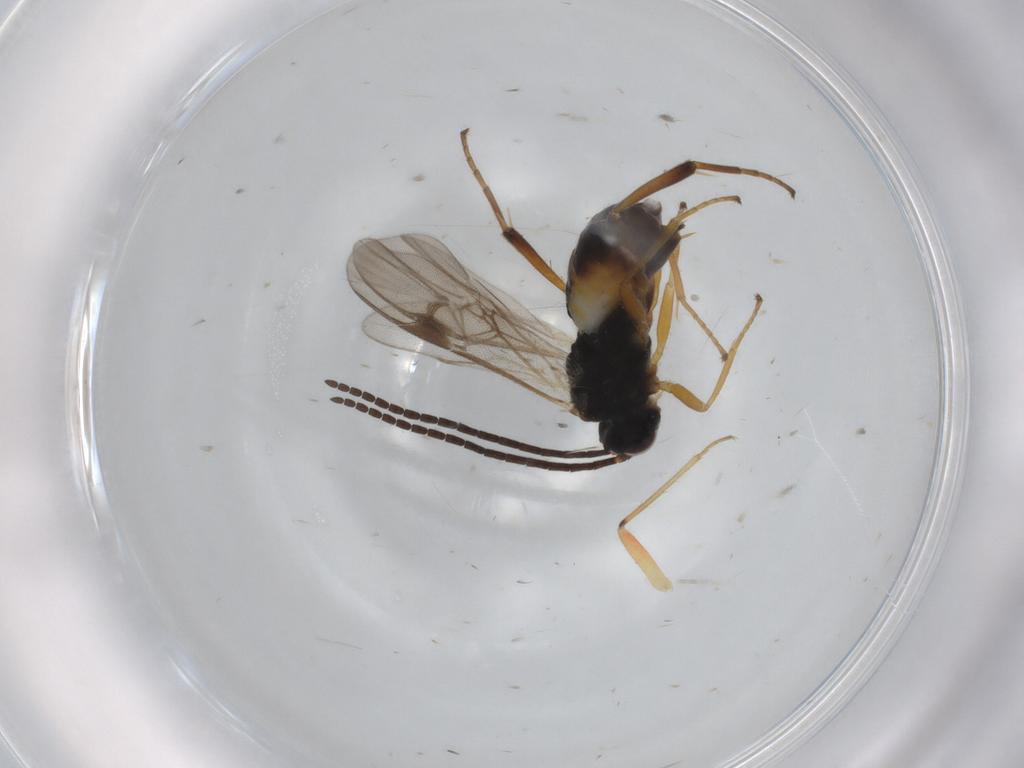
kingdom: Animalia
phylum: Arthropoda
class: Insecta
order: Hymenoptera
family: Braconidae
